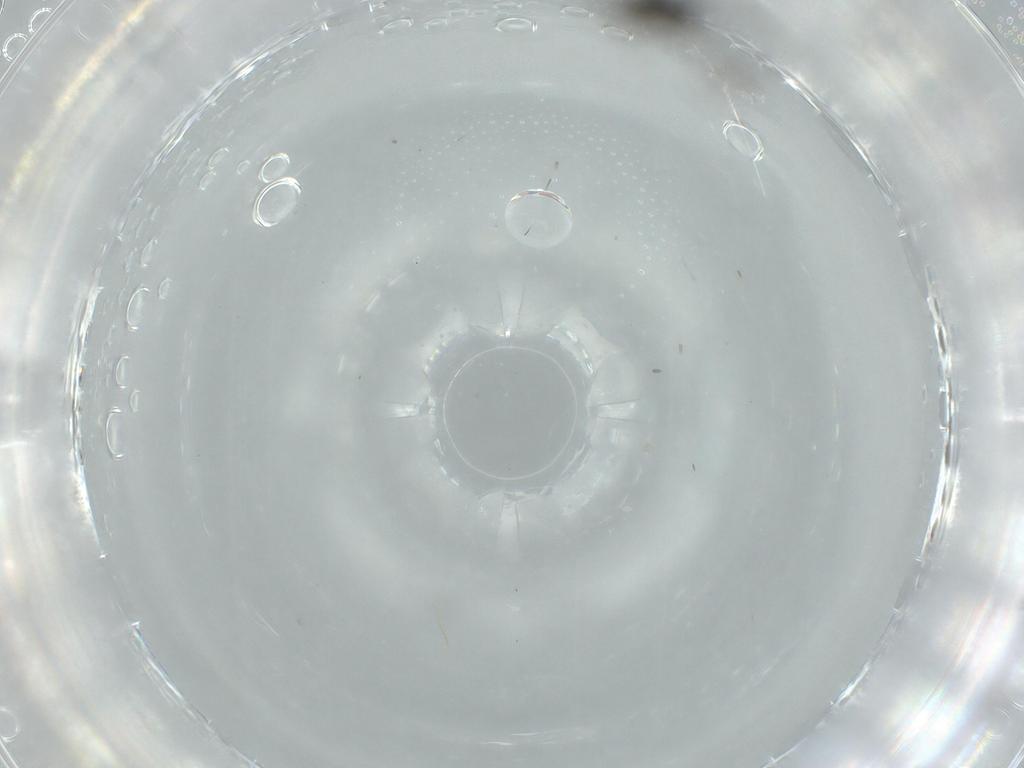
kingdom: Animalia
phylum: Arthropoda
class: Insecta
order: Diptera
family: Sciaridae
